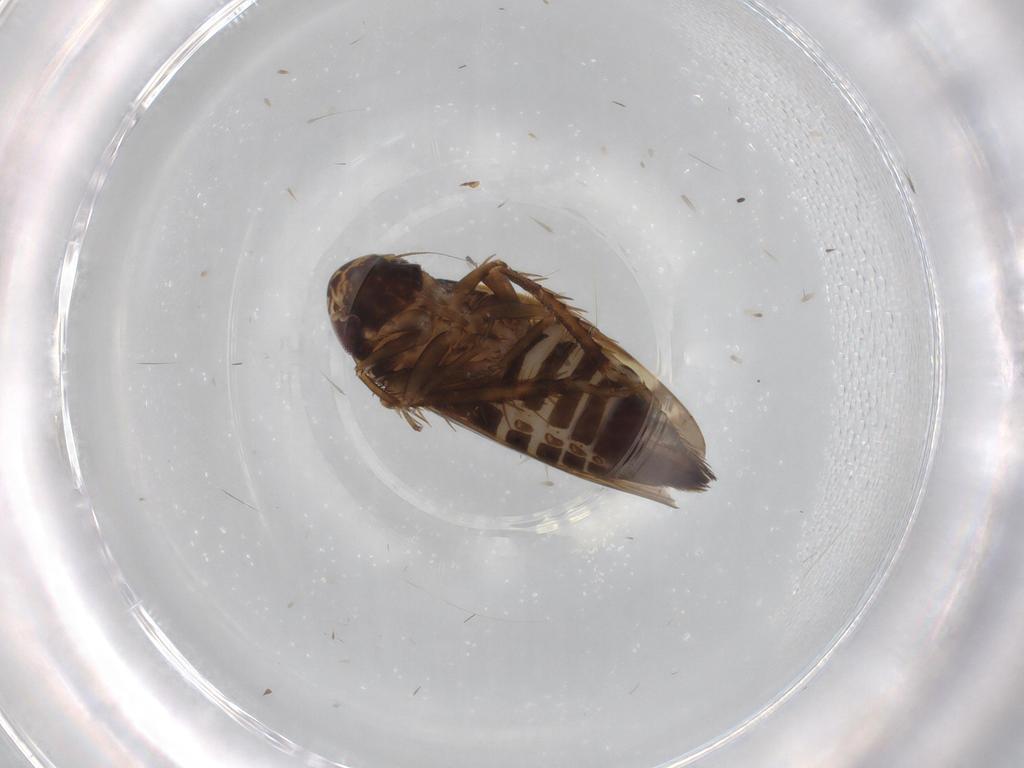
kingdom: Animalia
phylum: Arthropoda
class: Insecta
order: Hemiptera
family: Cicadellidae
